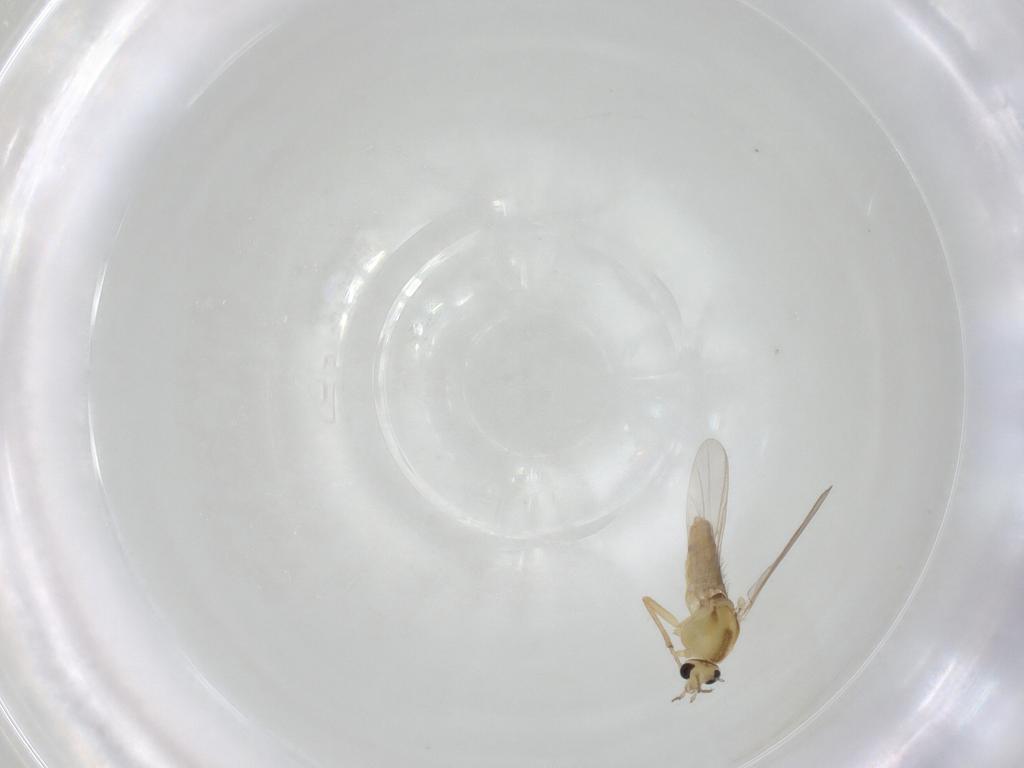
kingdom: Animalia
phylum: Arthropoda
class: Insecta
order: Diptera
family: Chironomidae
